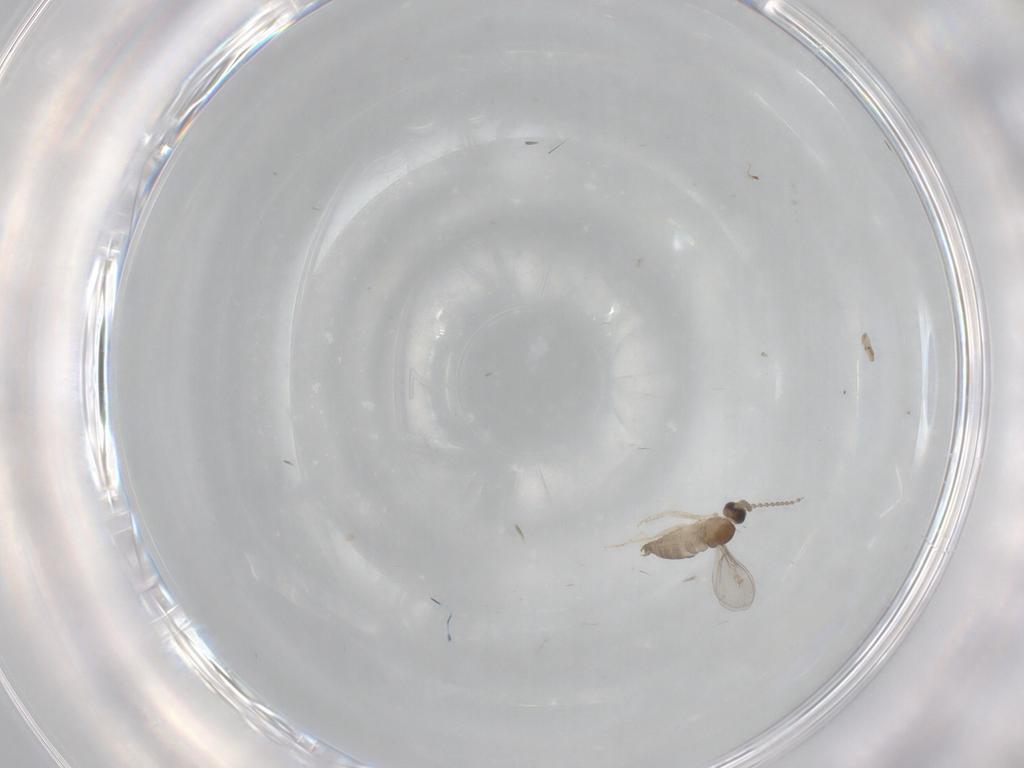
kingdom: Animalia
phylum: Arthropoda
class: Insecta
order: Diptera
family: Cecidomyiidae
